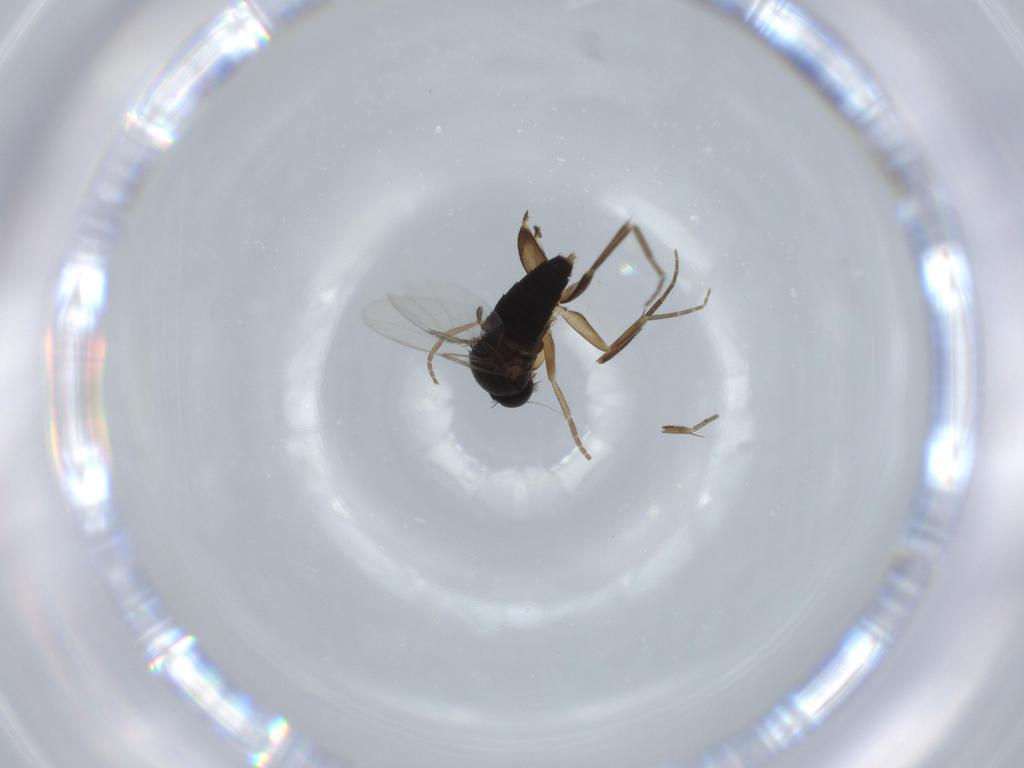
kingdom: Animalia
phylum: Arthropoda
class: Insecta
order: Diptera
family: Phoridae
